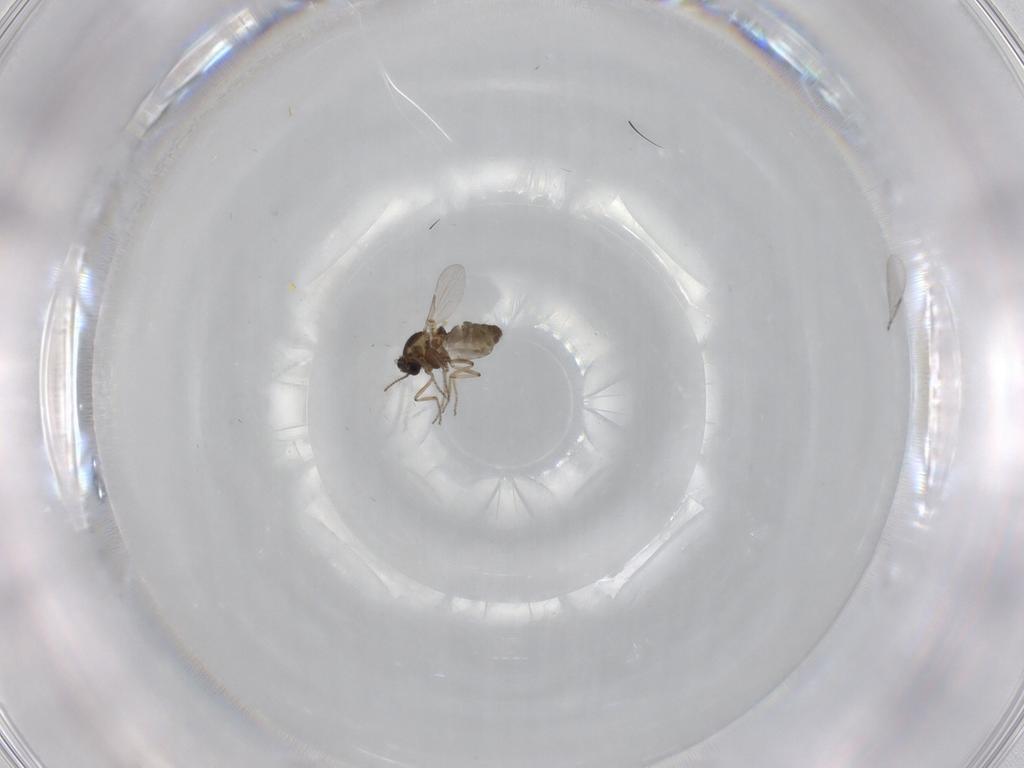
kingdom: Animalia
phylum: Arthropoda
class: Insecta
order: Diptera
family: Ceratopogonidae
